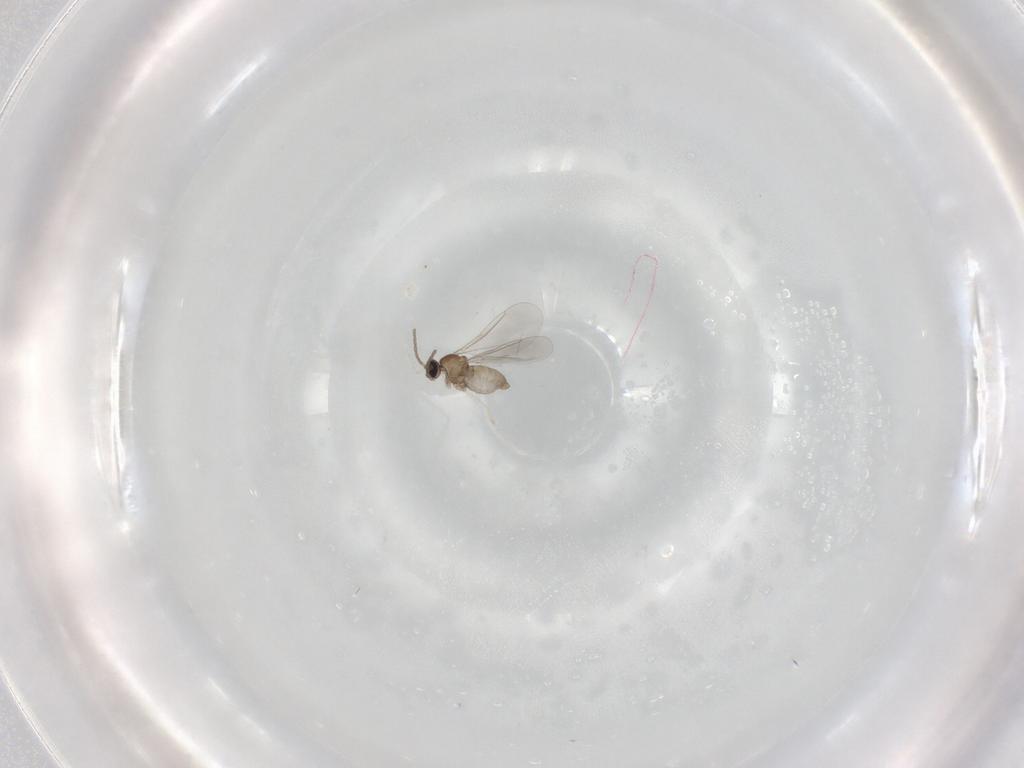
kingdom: Animalia
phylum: Arthropoda
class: Insecta
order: Diptera
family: Cecidomyiidae
